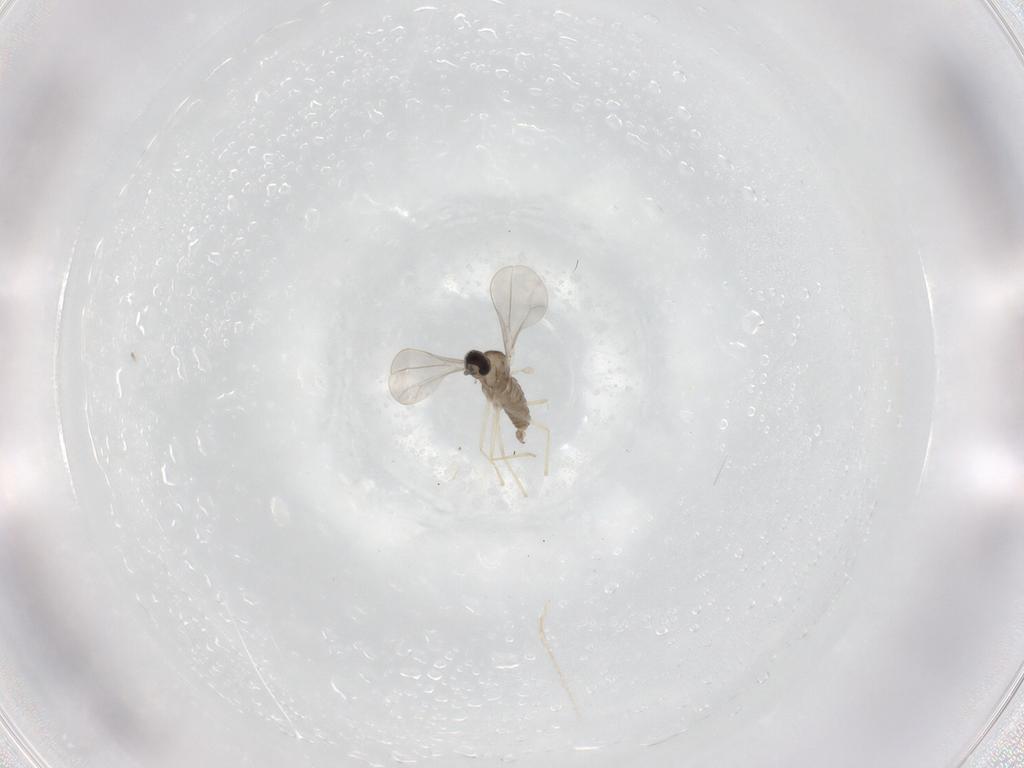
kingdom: Animalia
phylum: Arthropoda
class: Insecta
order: Diptera
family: Cecidomyiidae
